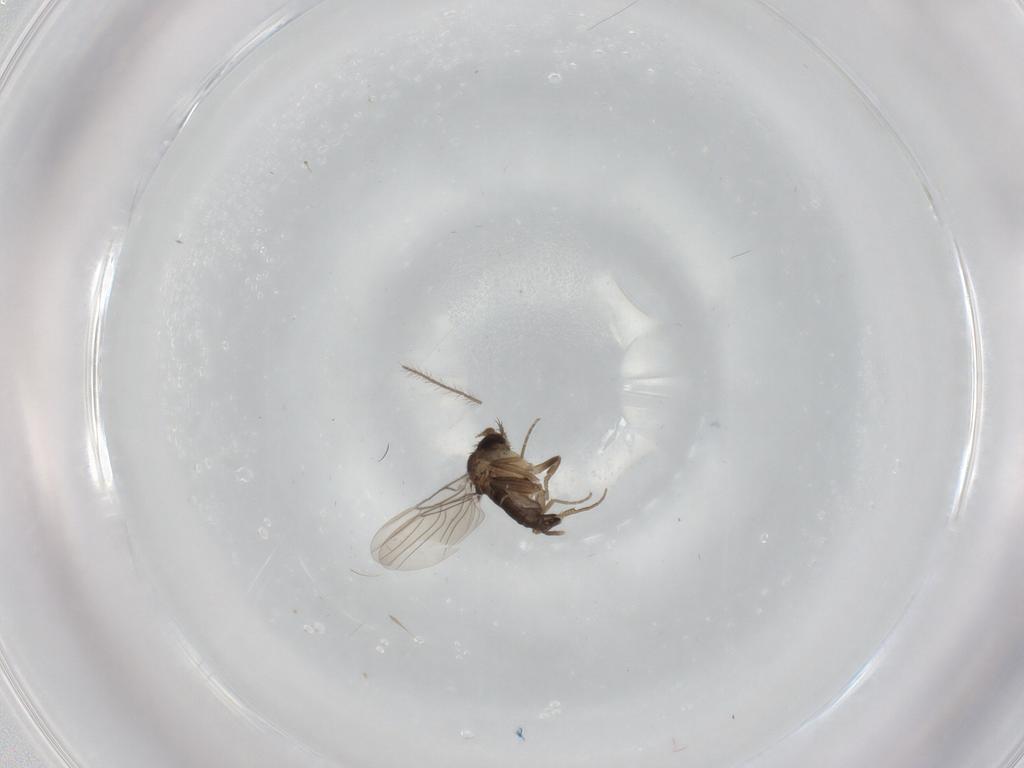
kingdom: Animalia
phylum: Arthropoda
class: Insecta
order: Diptera
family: Phoridae
